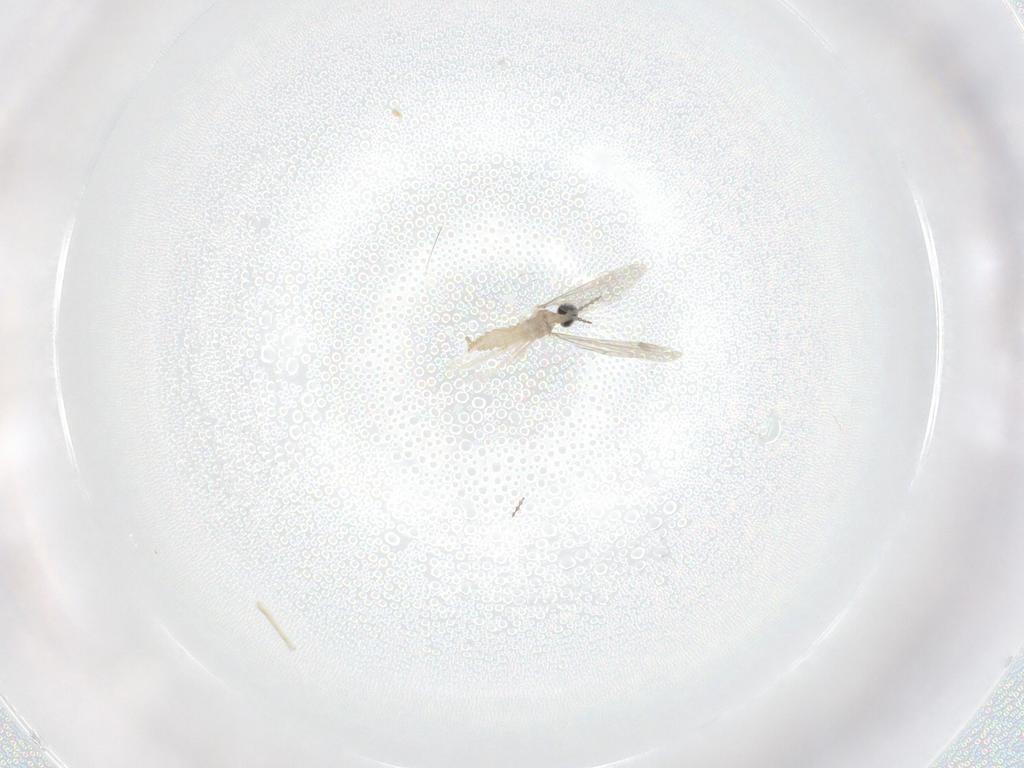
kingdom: Animalia
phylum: Arthropoda
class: Insecta
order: Diptera
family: Cecidomyiidae
